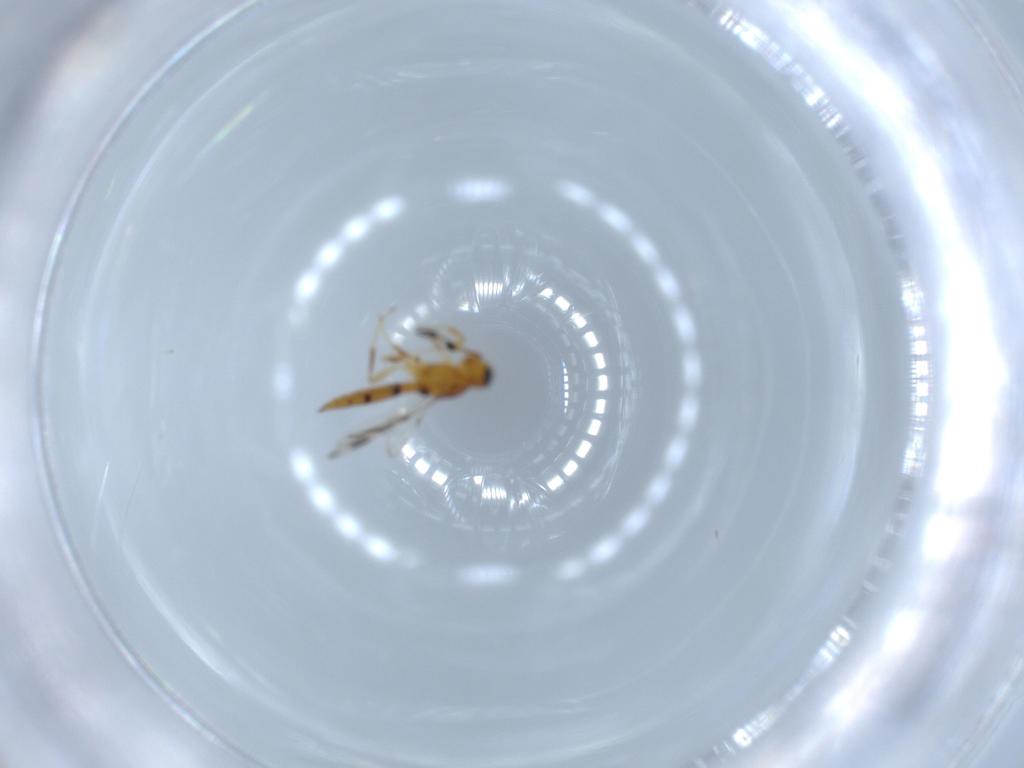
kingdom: Animalia
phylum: Arthropoda
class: Insecta
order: Hymenoptera
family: Scelionidae
